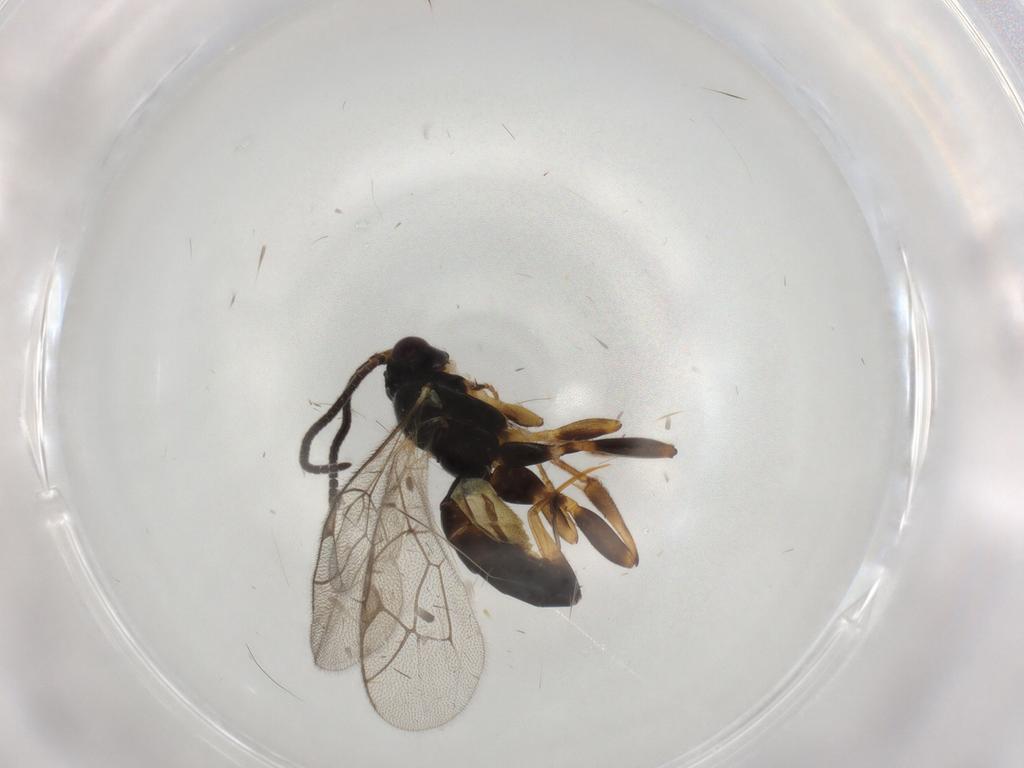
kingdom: Animalia
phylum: Arthropoda
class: Insecta
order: Hymenoptera
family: Ichneumonidae
